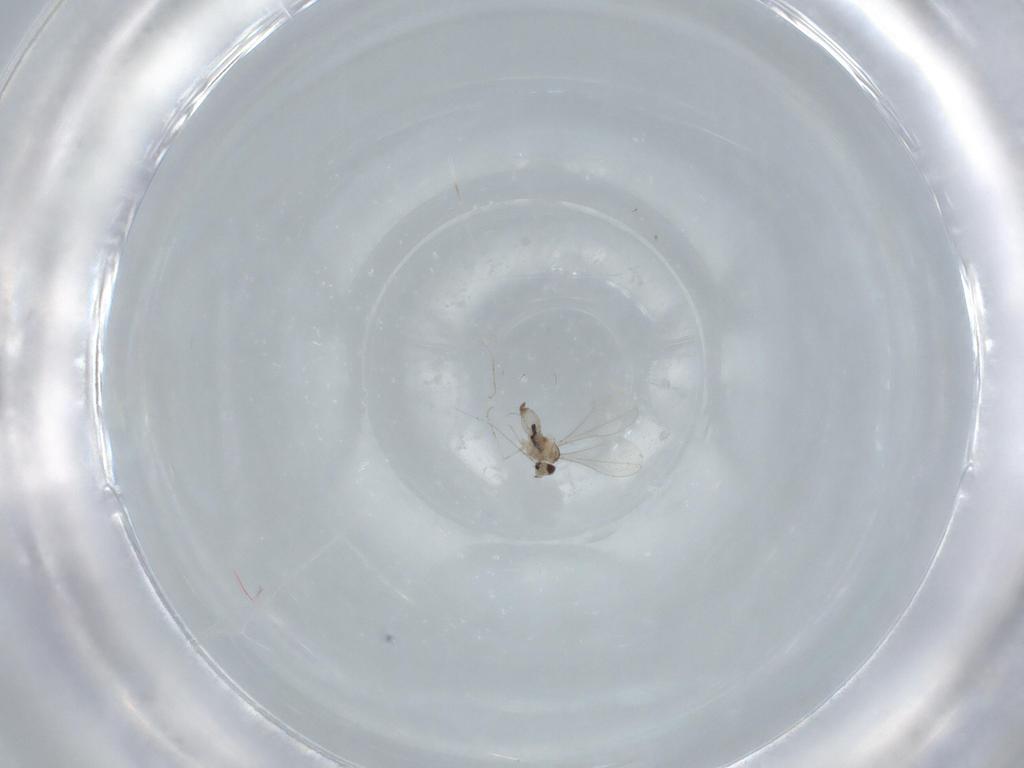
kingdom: Animalia
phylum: Arthropoda
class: Insecta
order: Diptera
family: Cecidomyiidae
